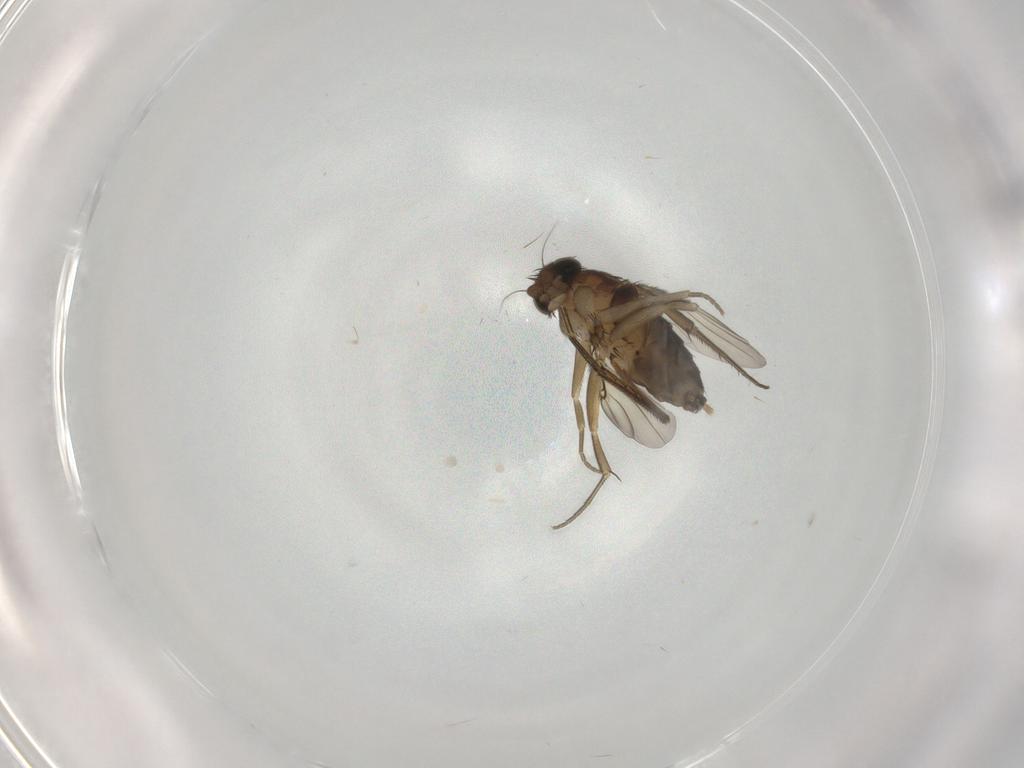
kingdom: Animalia
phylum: Arthropoda
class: Insecta
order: Diptera
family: Phoridae
